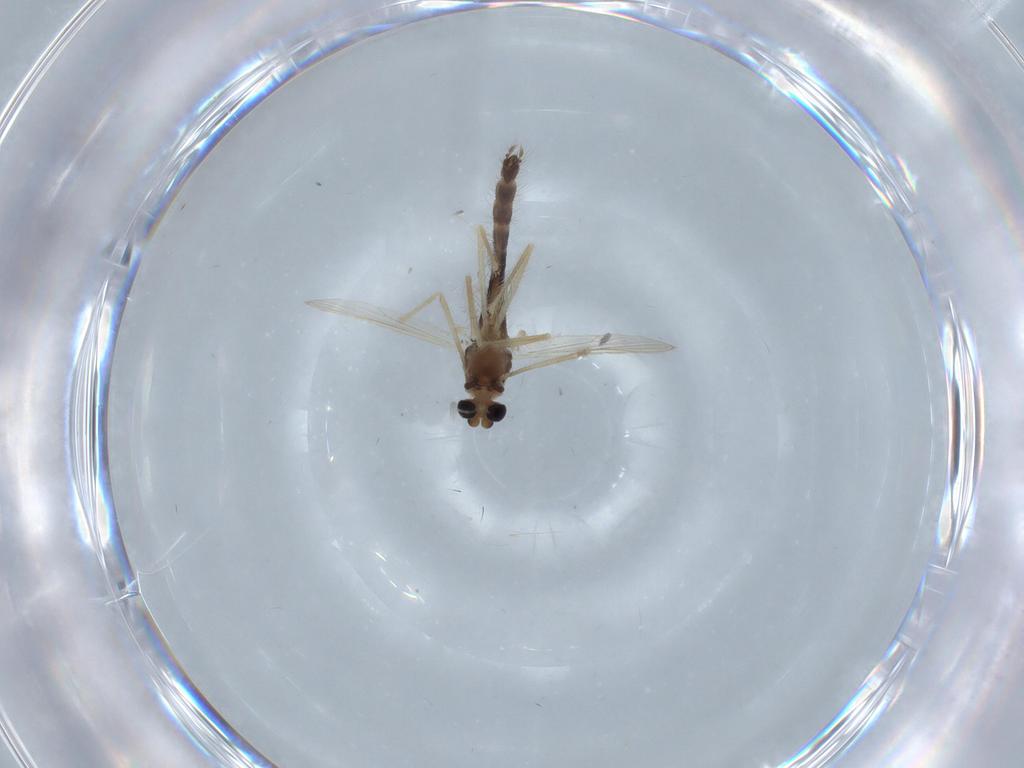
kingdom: Animalia
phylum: Arthropoda
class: Insecta
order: Diptera
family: Chironomidae
